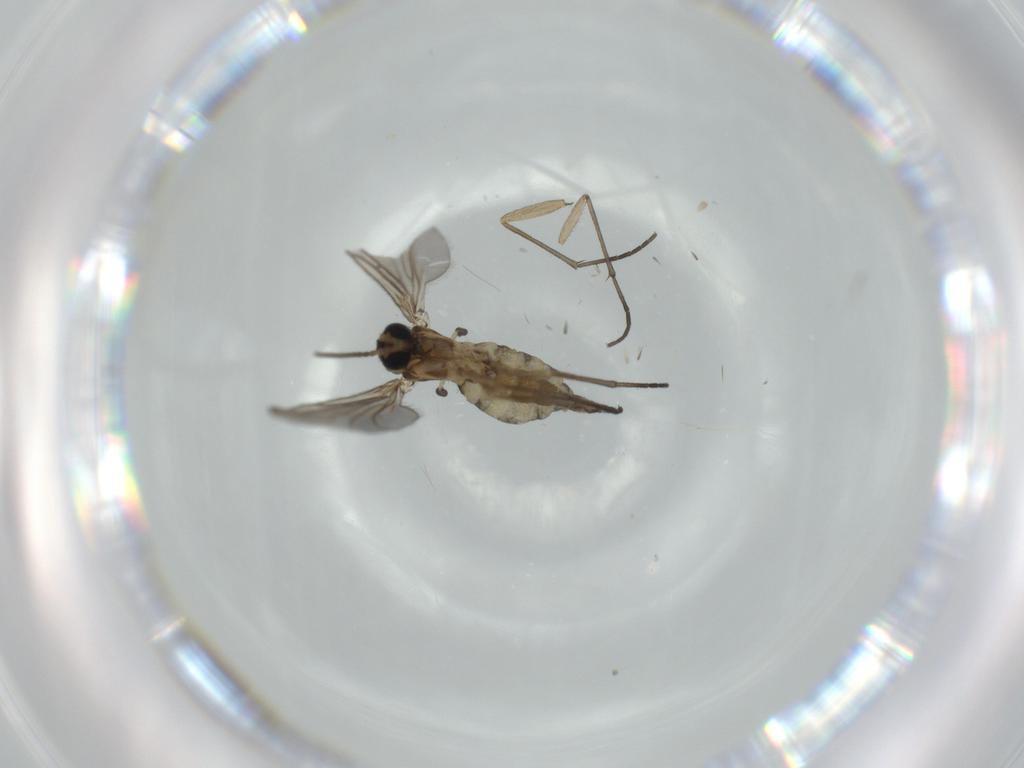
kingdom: Animalia
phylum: Arthropoda
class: Insecta
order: Diptera
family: Sciaridae
